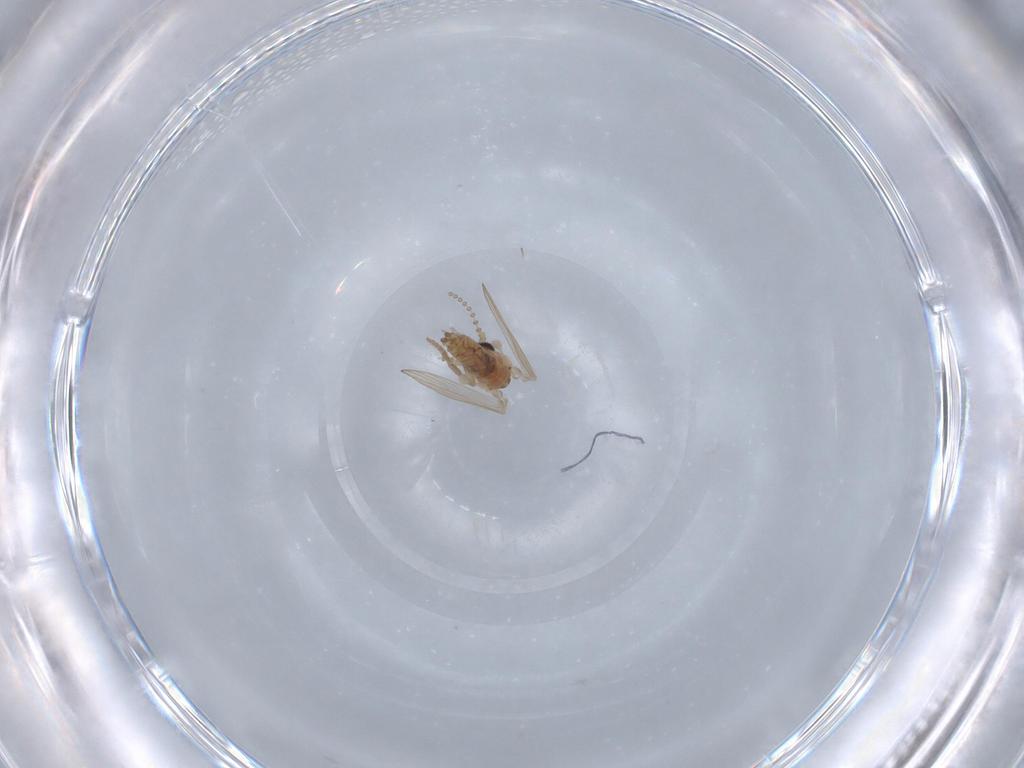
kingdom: Animalia
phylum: Arthropoda
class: Insecta
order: Diptera
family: Psychodidae
